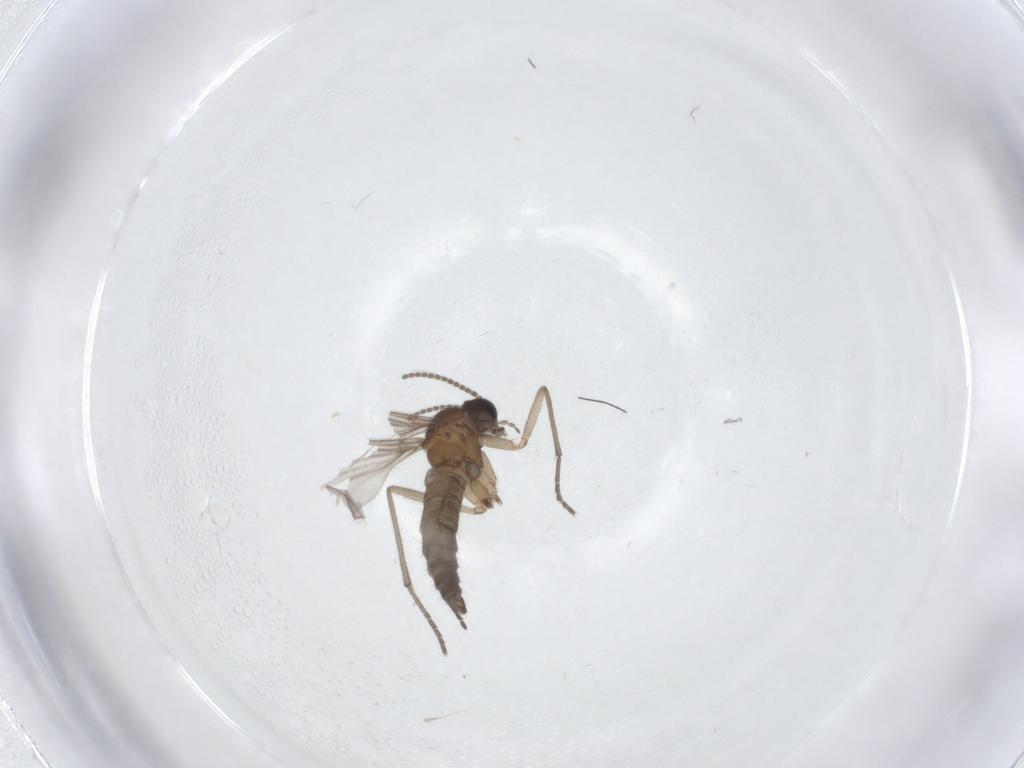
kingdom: Animalia
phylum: Arthropoda
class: Insecta
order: Diptera
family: Sciaridae
